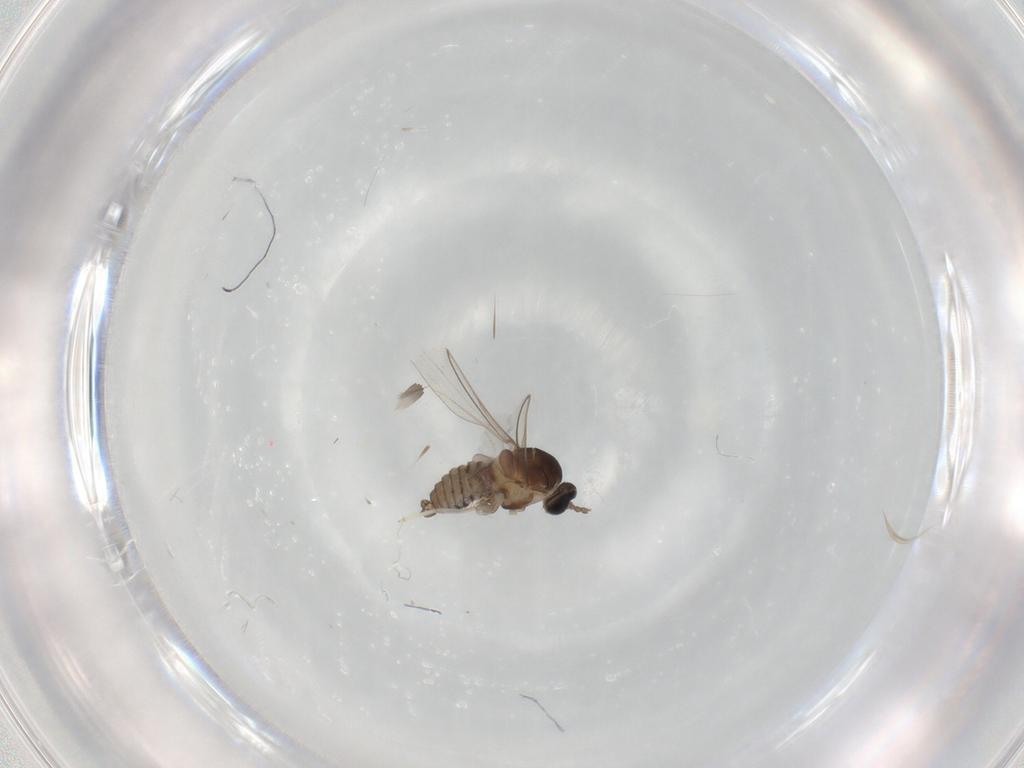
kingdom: Animalia
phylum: Arthropoda
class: Insecta
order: Diptera
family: Cecidomyiidae
